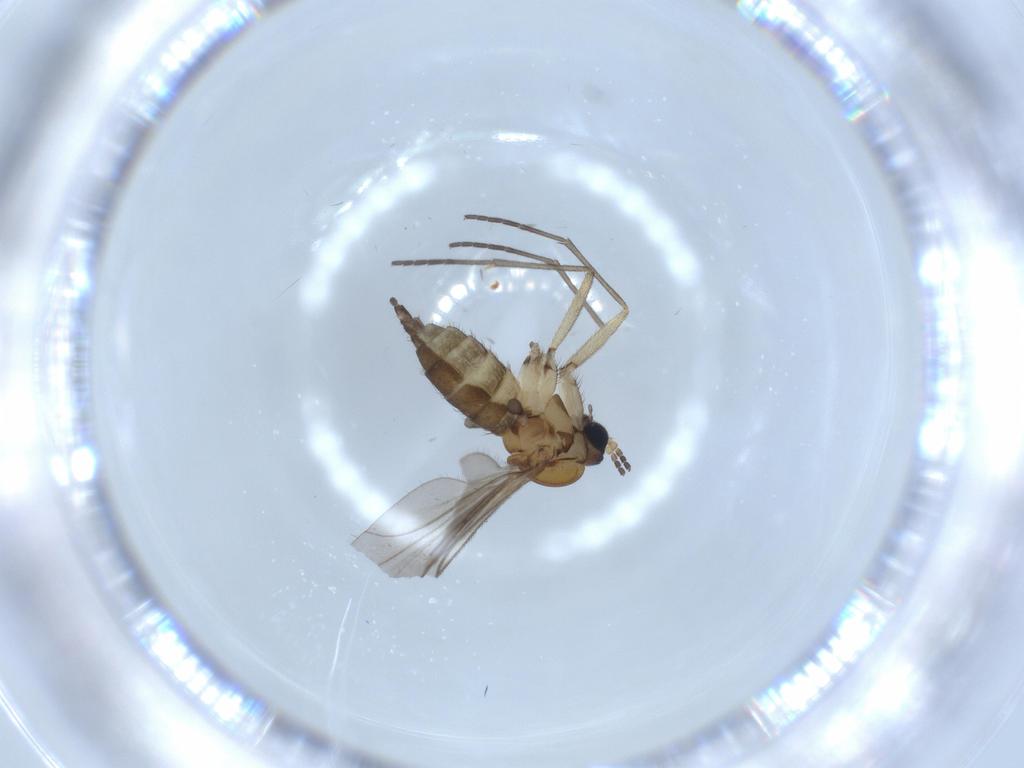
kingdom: Animalia
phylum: Arthropoda
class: Insecta
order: Diptera
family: Sciaridae
